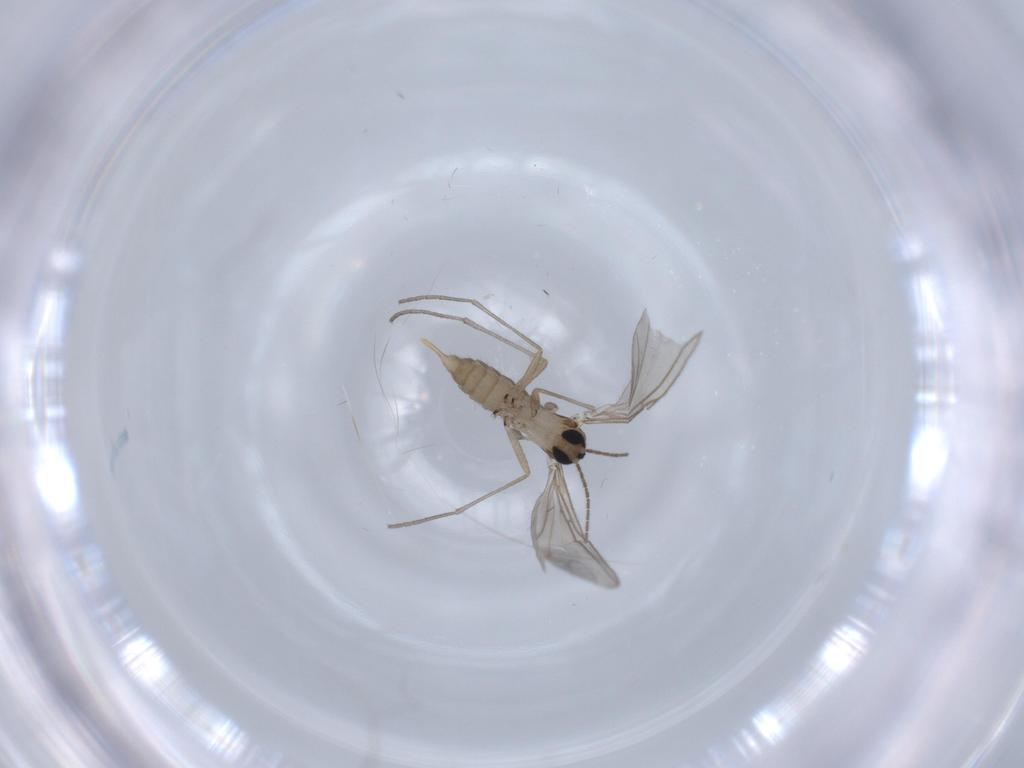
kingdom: Animalia
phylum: Arthropoda
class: Insecta
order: Diptera
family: Sciaridae
